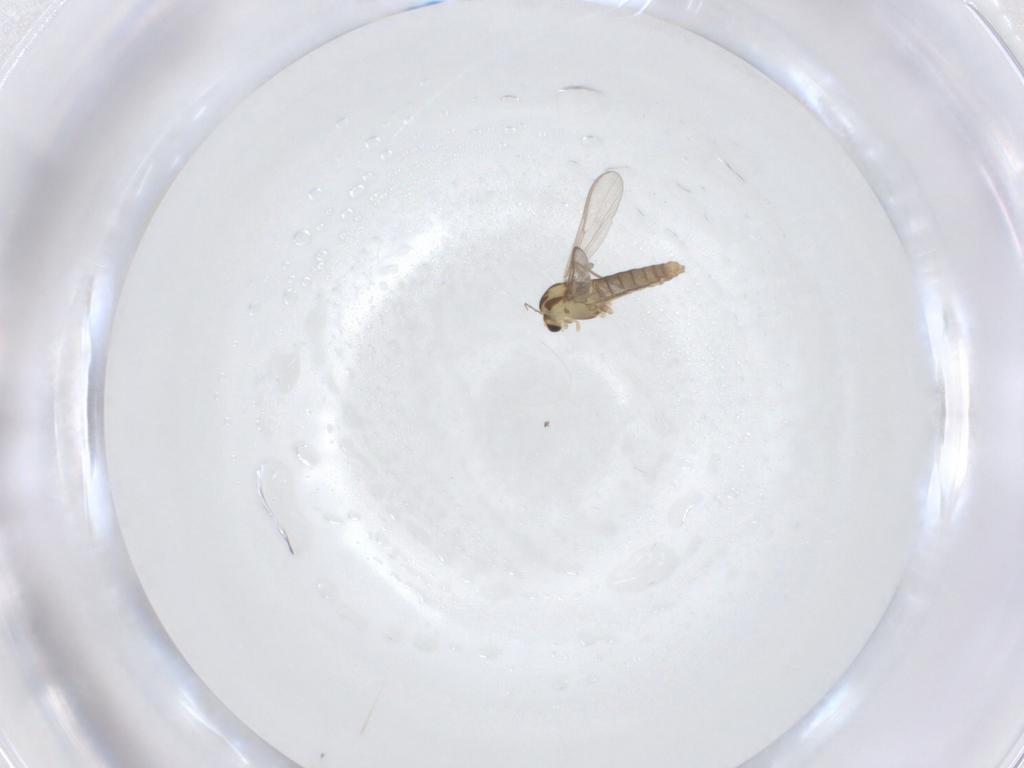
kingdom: Animalia
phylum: Arthropoda
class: Insecta
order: Diptera
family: Chironomidae
